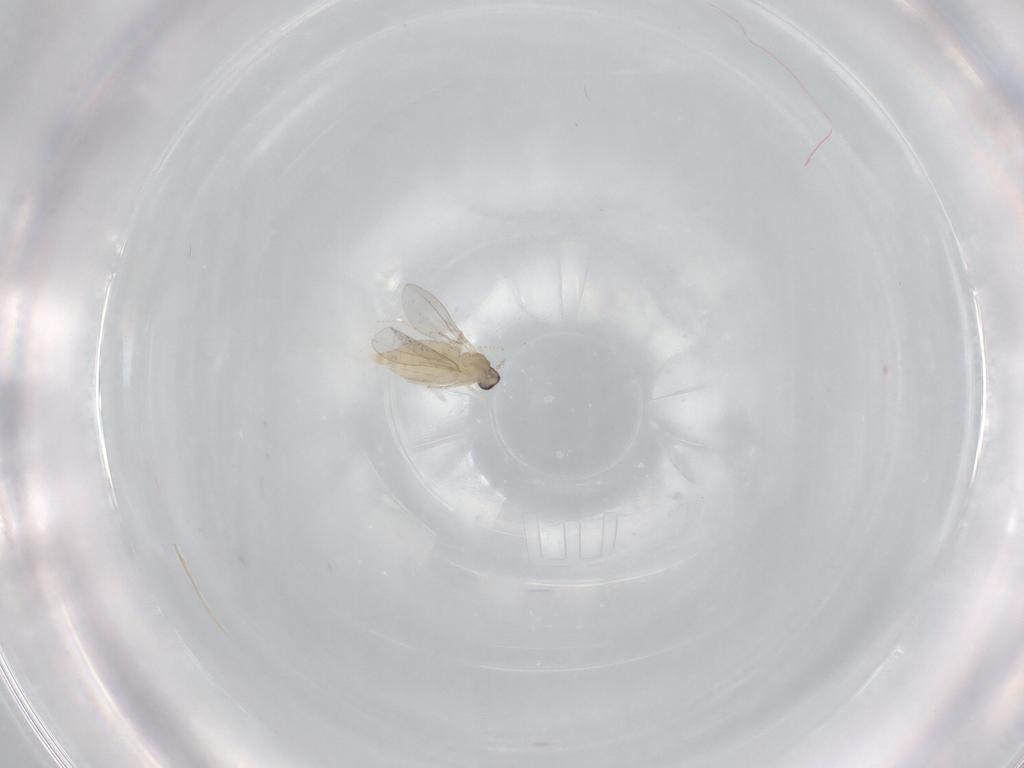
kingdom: Animalia
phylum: Arthropoda
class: Insecta
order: Diptera
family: Cecidomyiidae
